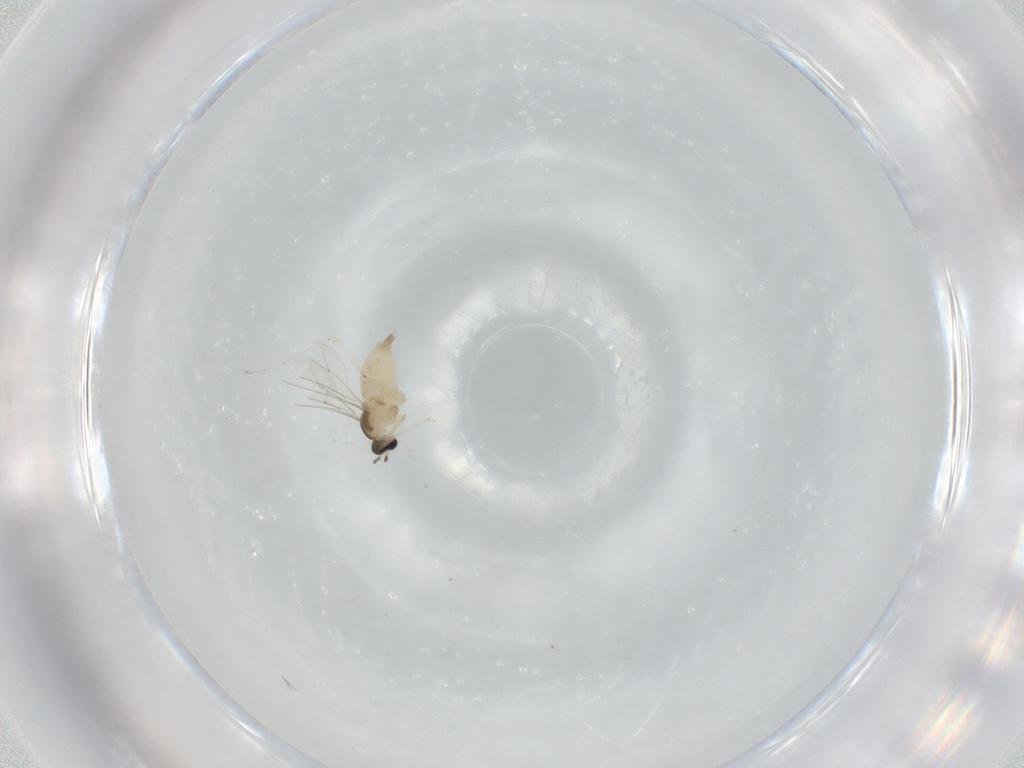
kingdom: Animalia
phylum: Arthropoda
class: Insecta
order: Diptera
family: Cecidomyiidae
